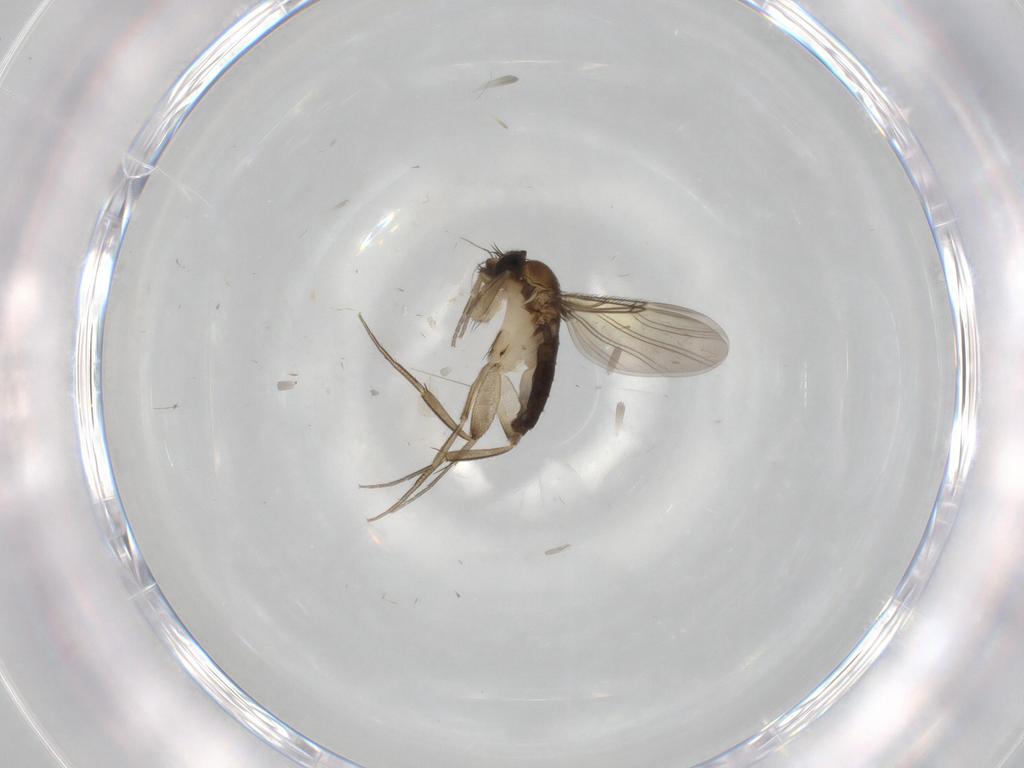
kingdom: Animalia
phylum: Arthropoda
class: Insecta
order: Diptera
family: Phoridae
